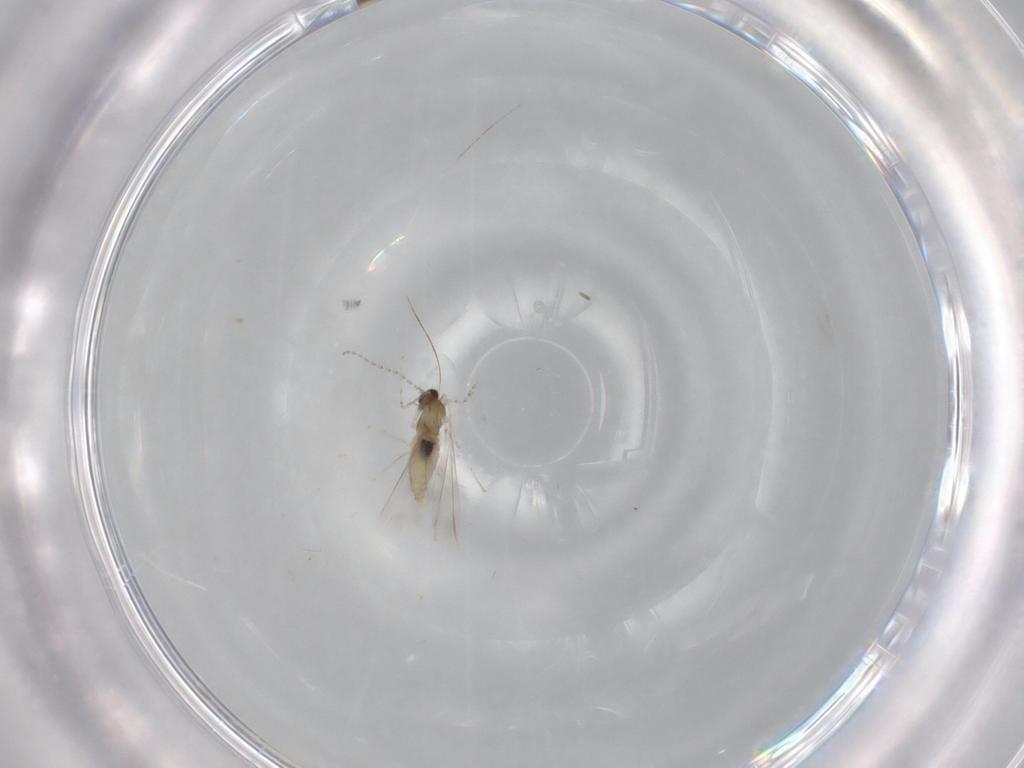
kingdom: Animalia
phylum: Arthropoda
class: Insecta
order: Diptera
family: Cecidomyiidae
